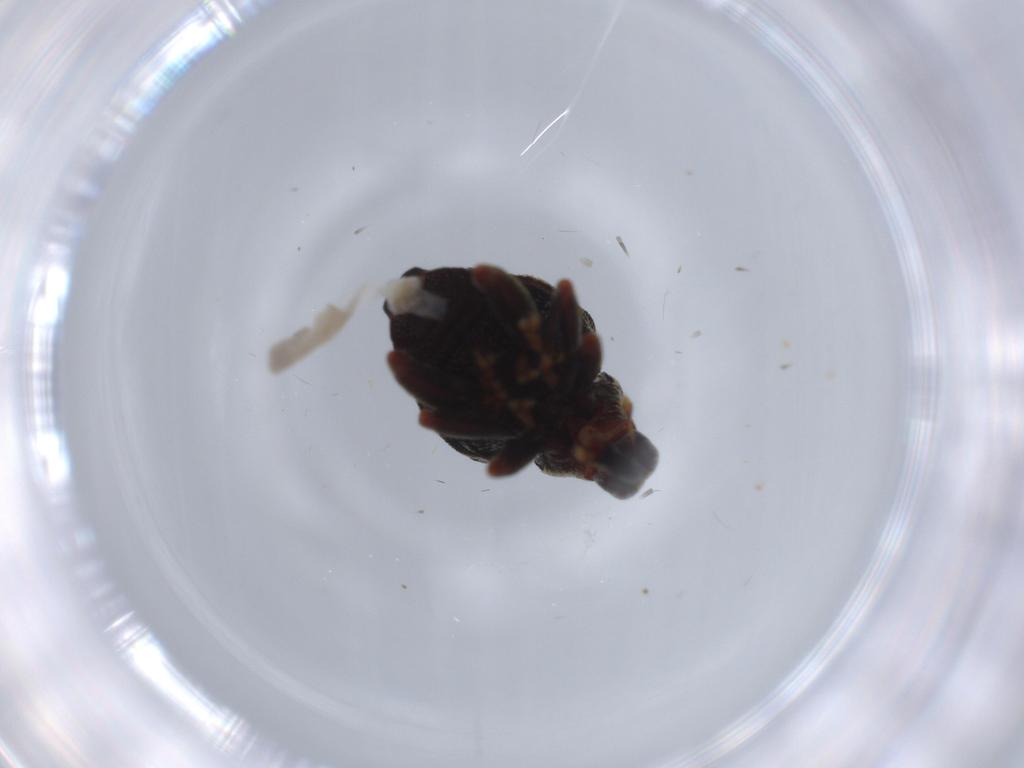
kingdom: Animalia
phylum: Arthropoda
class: Insecta
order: Coleoptera
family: Curculionidae
